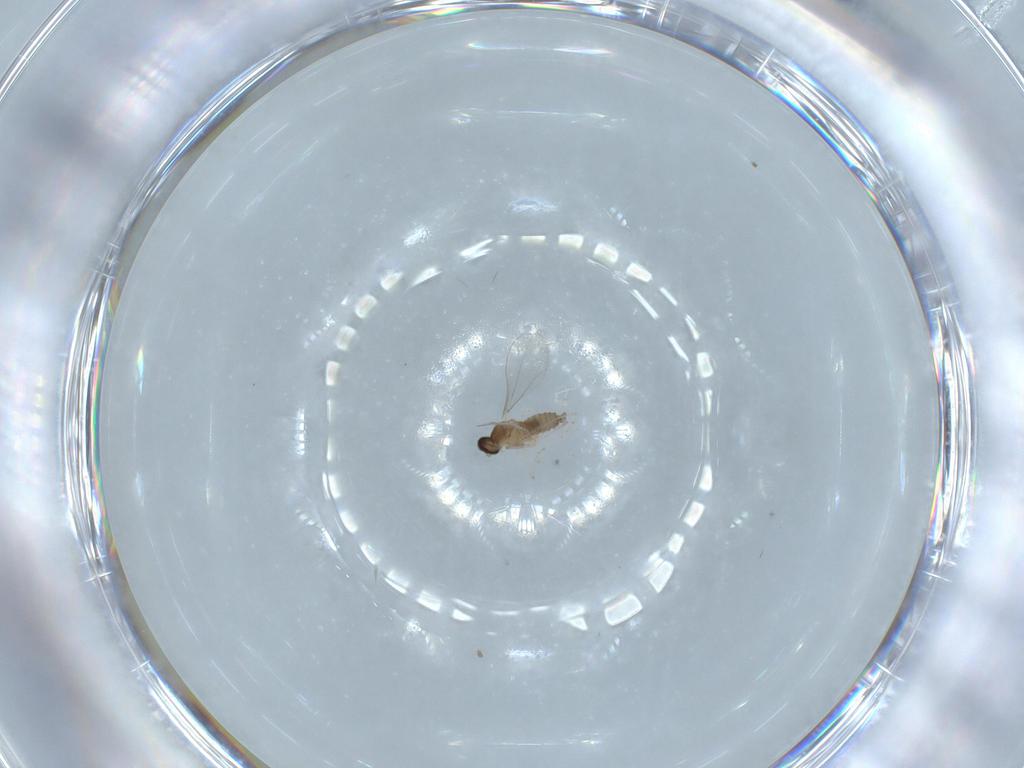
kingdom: Animalia
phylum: Arthropoda
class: Insecta
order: Diptera
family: Cecidomyiidae
